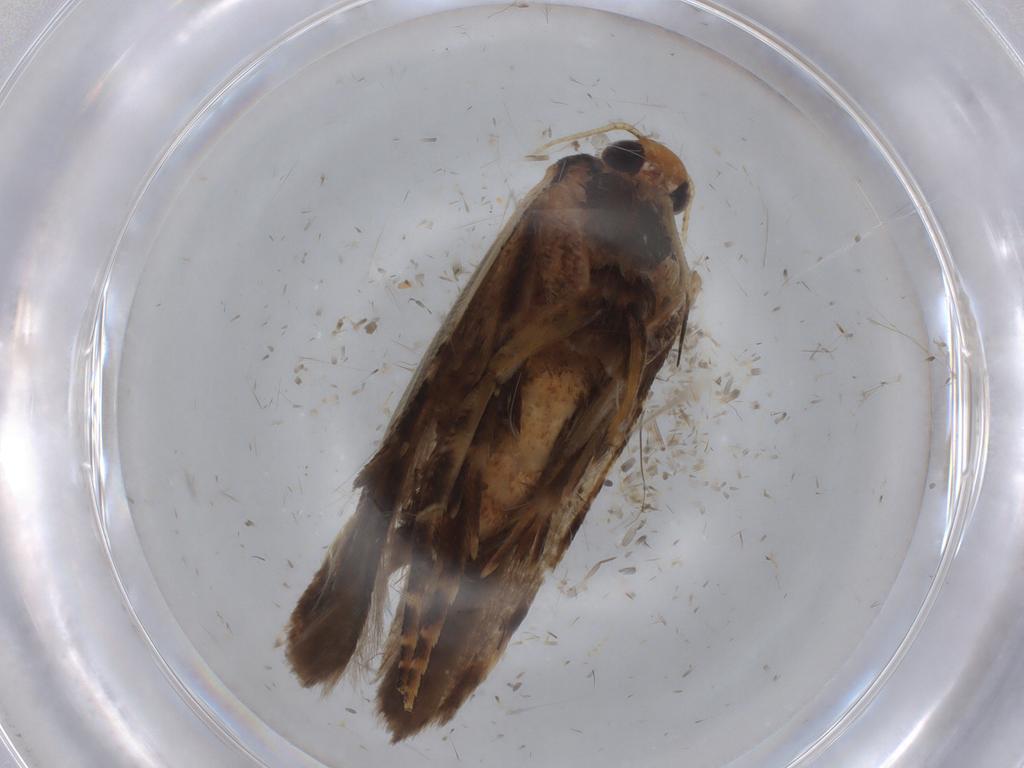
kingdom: Animalia
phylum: Arthropoda
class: Insecta
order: Lepidoptera
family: Gelechiidae
